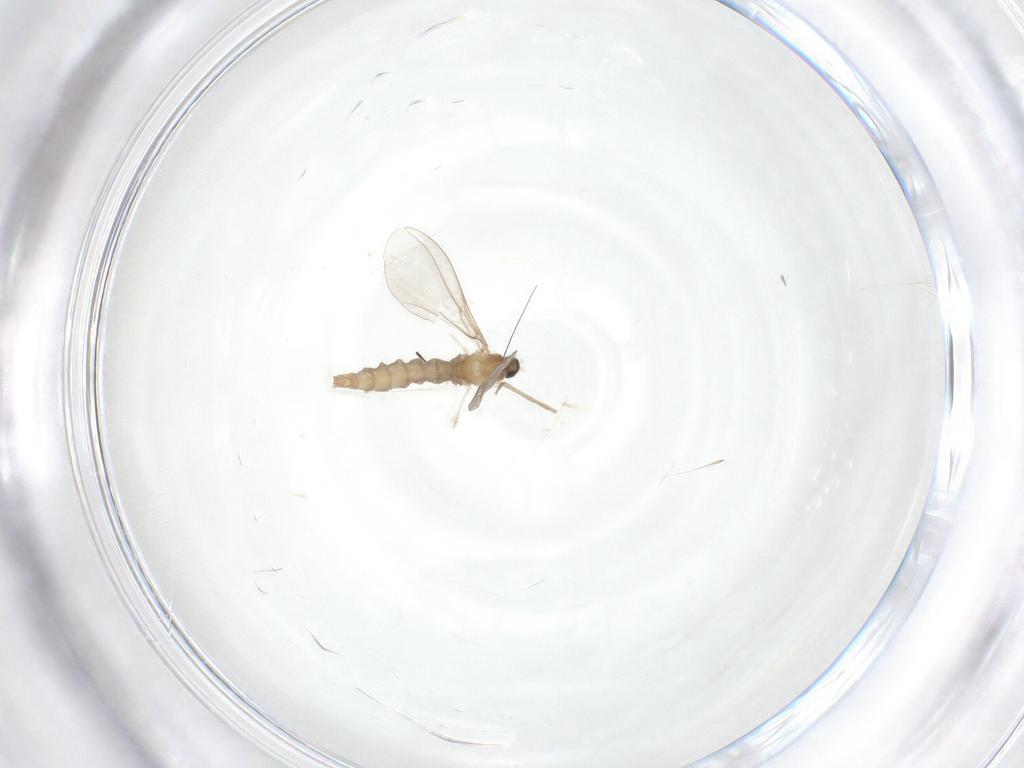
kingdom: Animalia
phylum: Arthropoda
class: Insecta
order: Diptera
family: Cecidomyiidae
